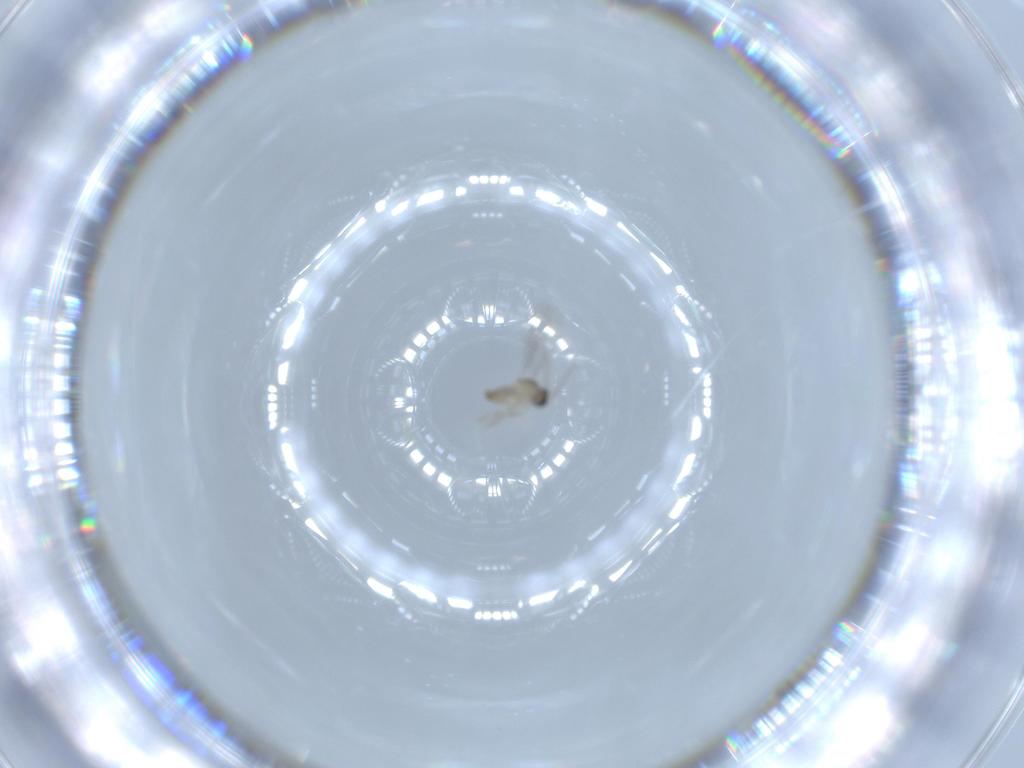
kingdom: Animalia
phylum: Arthropoda
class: Insecta
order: Diptera
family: Cecidomyiidae
